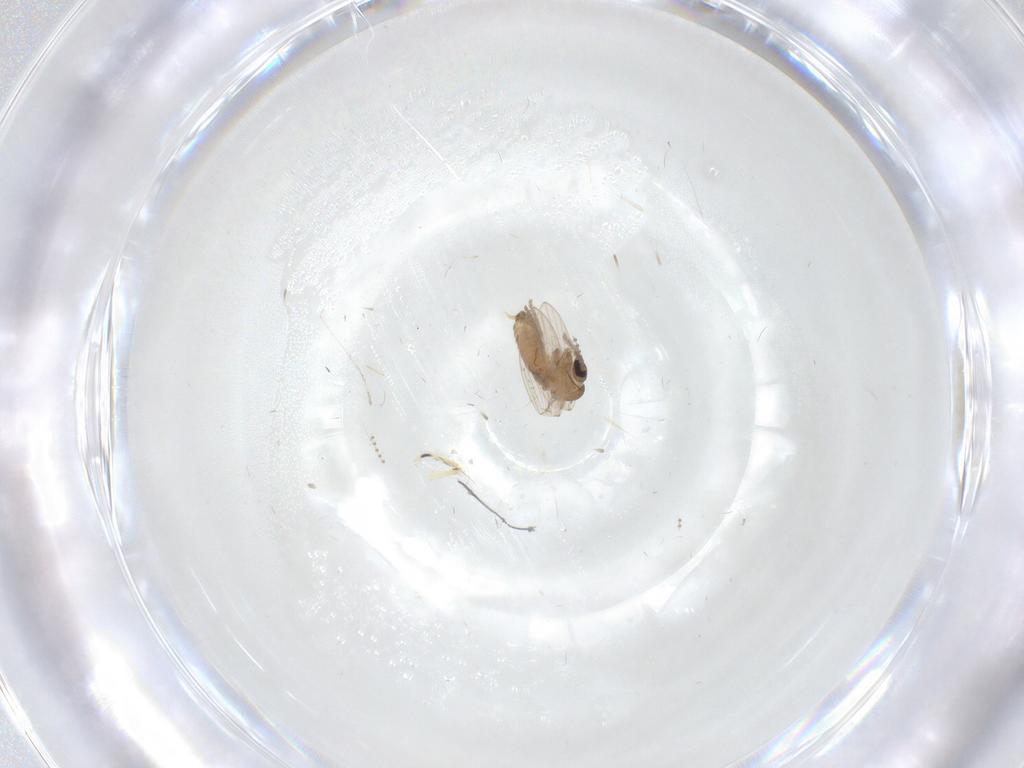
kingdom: Animalia
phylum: Arthropoda
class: Insecta
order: Diptera
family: Psychodidae
